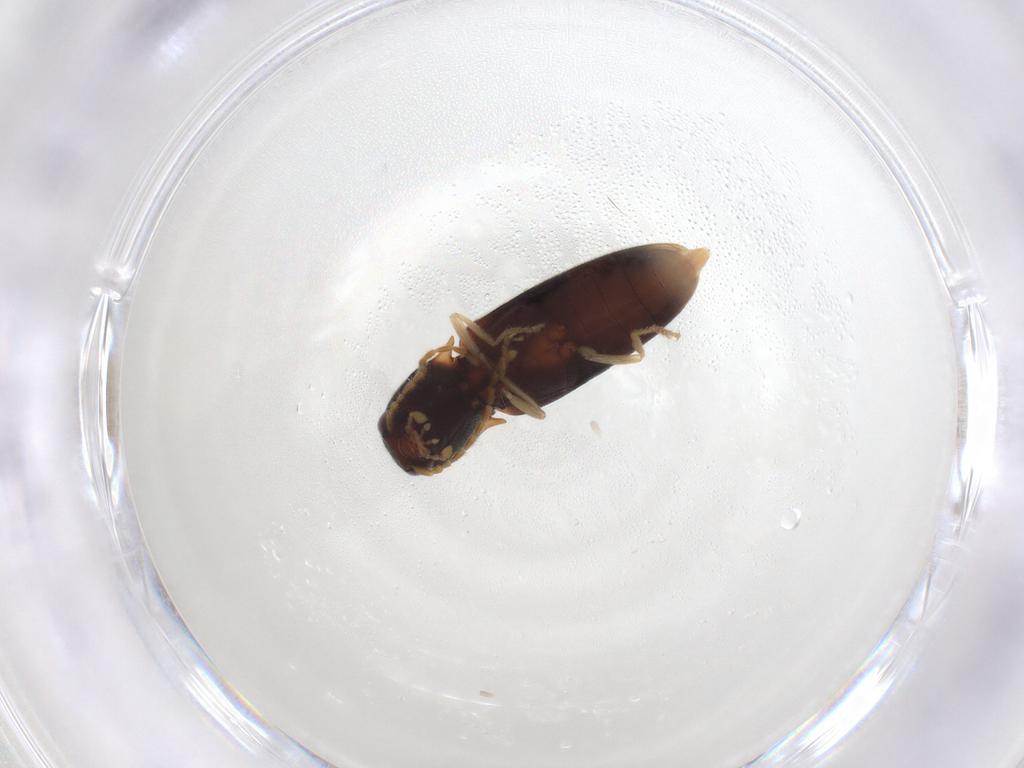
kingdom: Animalia
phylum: Arthropoda
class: Insecta
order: Coleoptera
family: Elateridae
